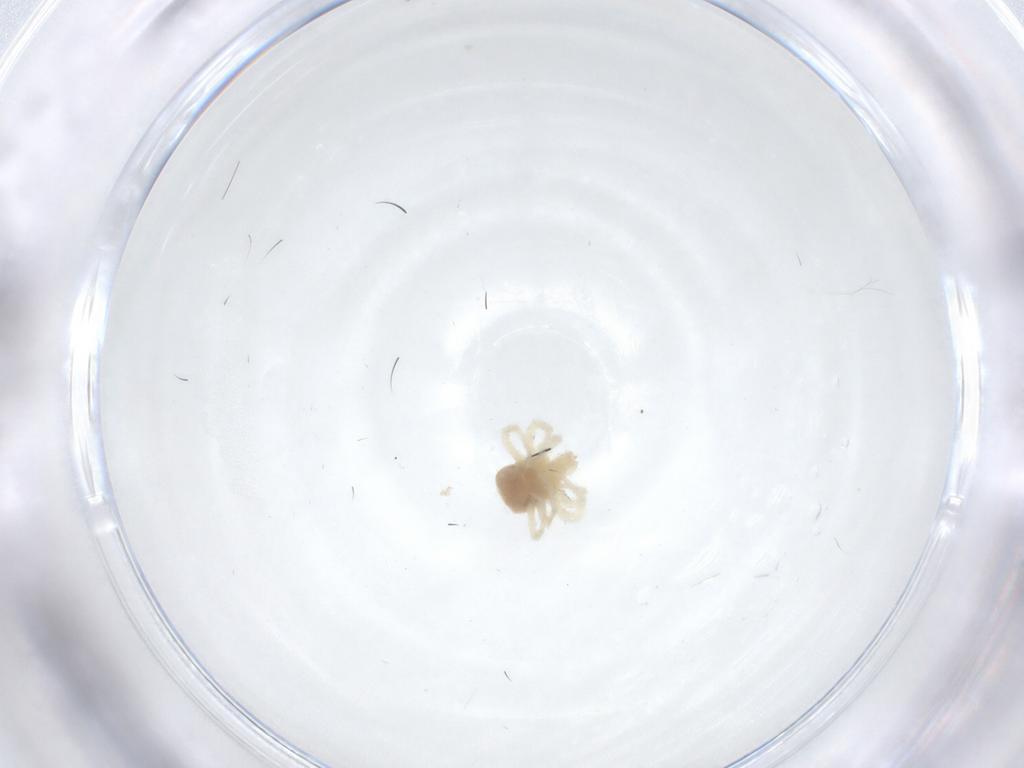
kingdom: Animalia
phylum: Arthropoda
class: Arachnida
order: Trombidiformes
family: Anystidae
